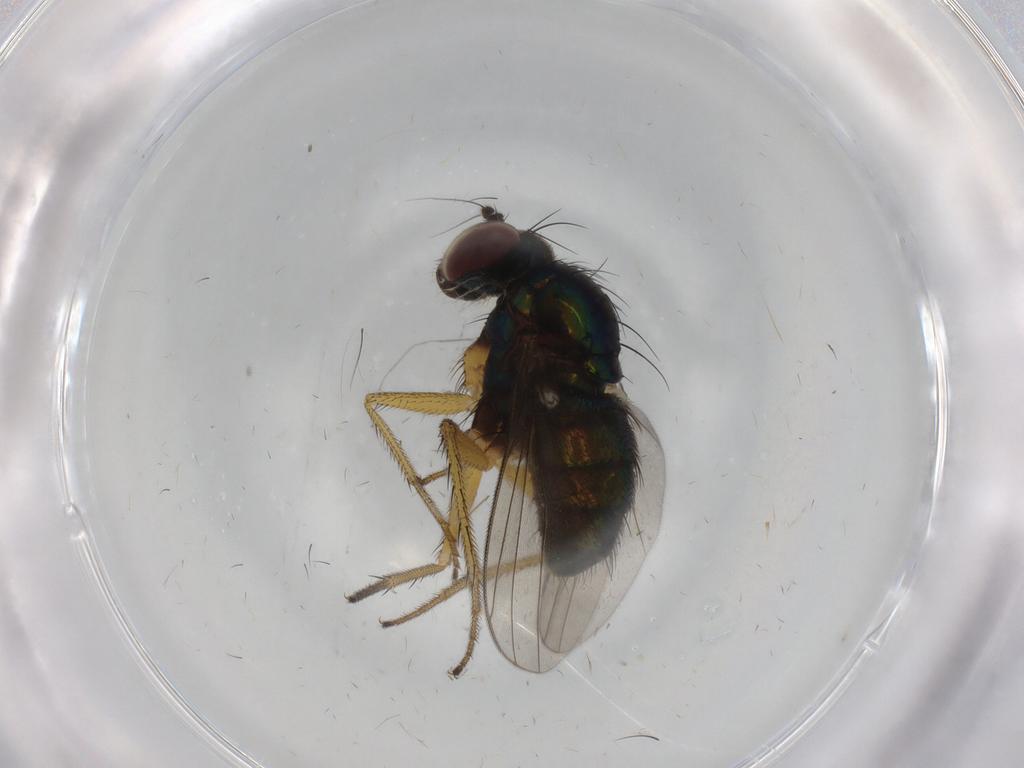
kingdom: Animalia
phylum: Arthropoda
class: Insecta
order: Diptera
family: Dolichopodidae
